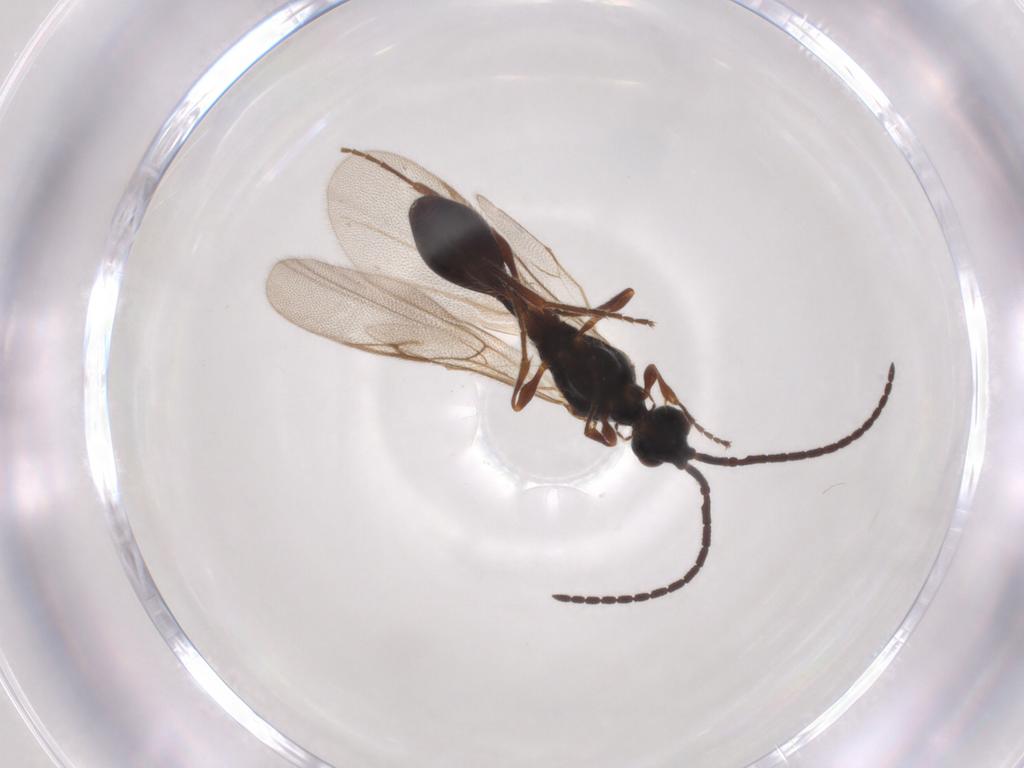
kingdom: Animalia
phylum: Arthropoda
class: Insecta
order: Hymenoptera
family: Diapriidae
